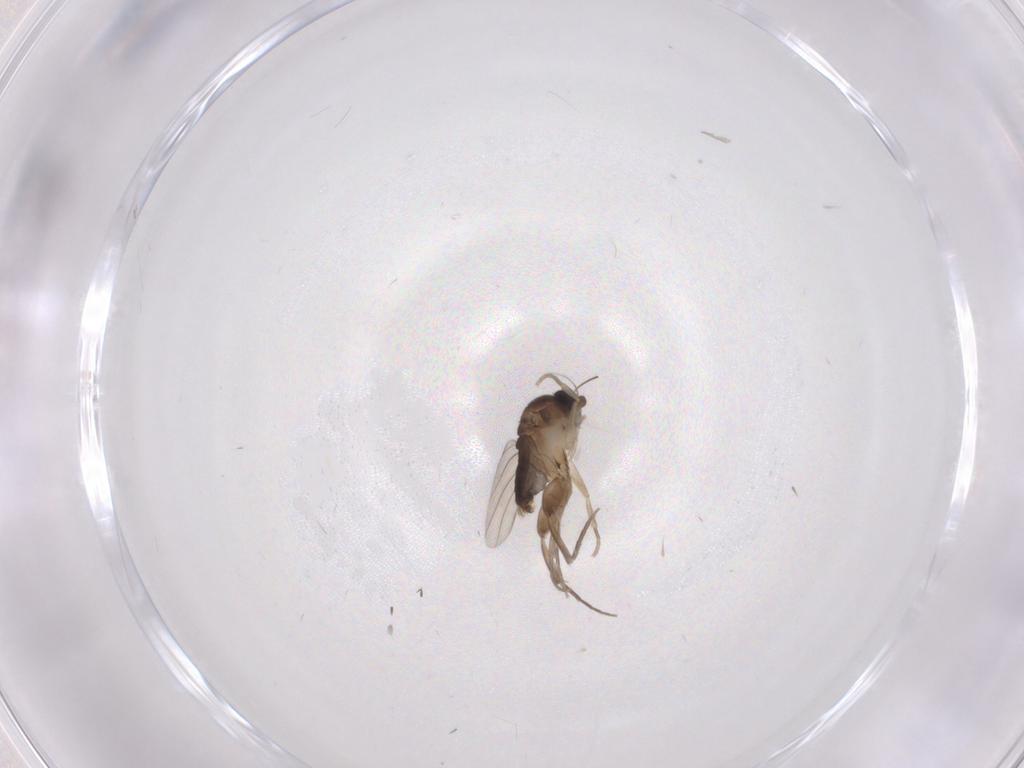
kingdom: Animalia
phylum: Arthropoda
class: Insecta
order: Diptera
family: Phoridae
